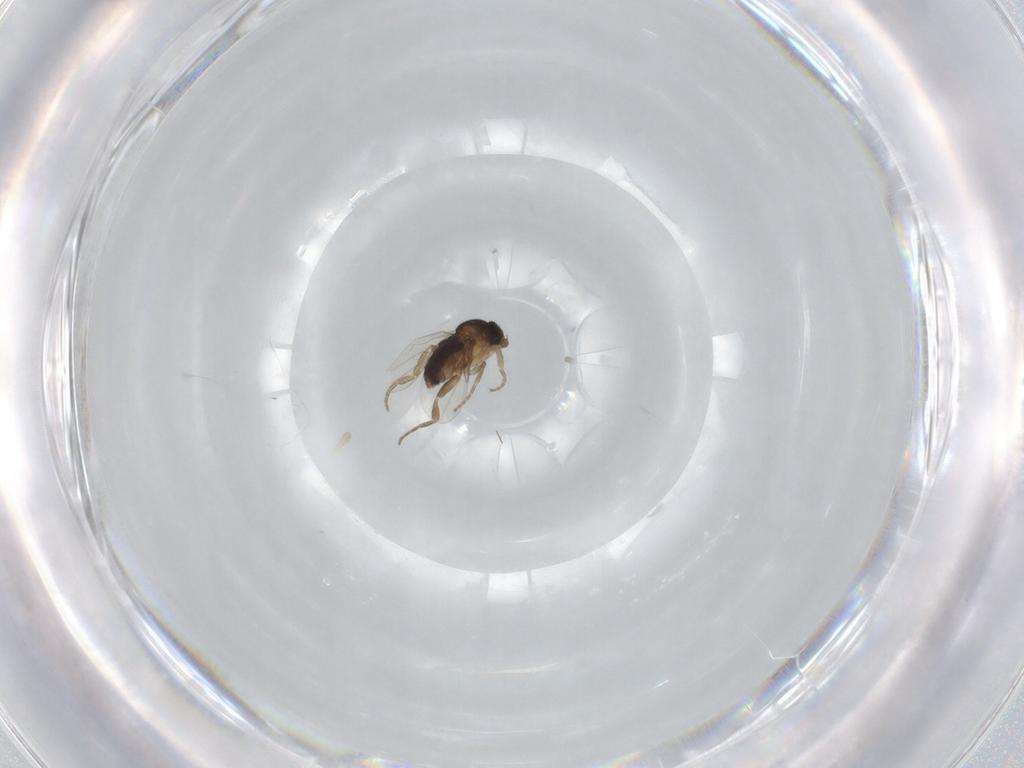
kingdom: Animalia
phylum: Arthropoda
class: Insecta
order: Diptera
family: Phoridae
